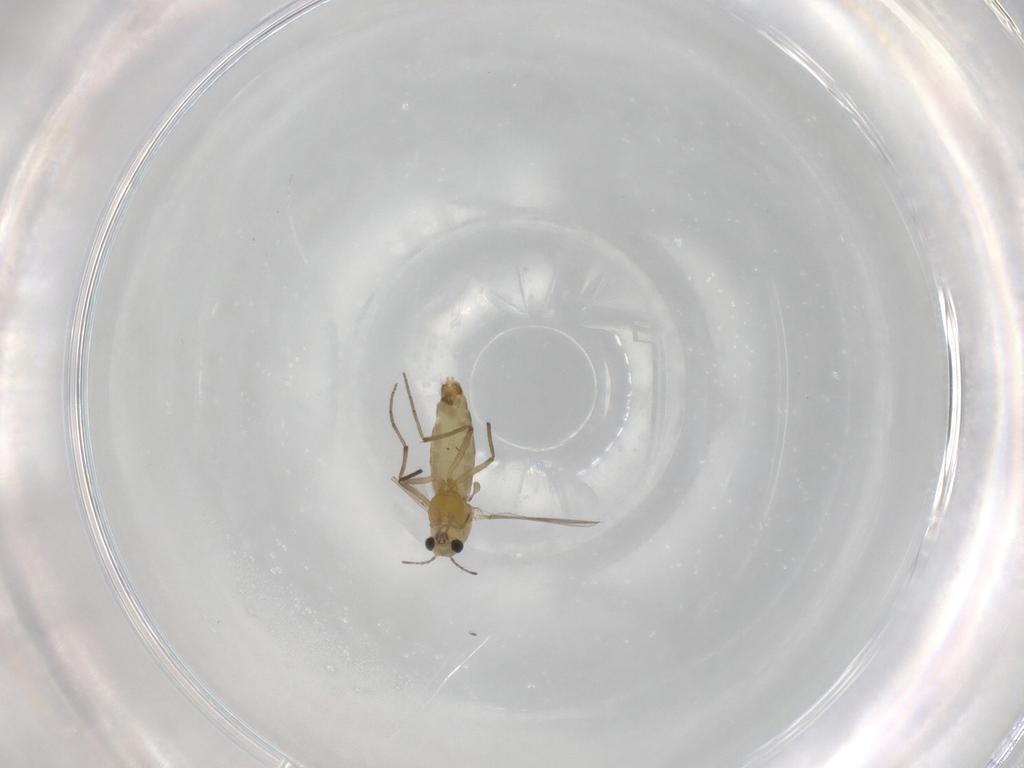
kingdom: Animalia
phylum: Arthropoda
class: Insecta
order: Diptera
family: Chironomidae
